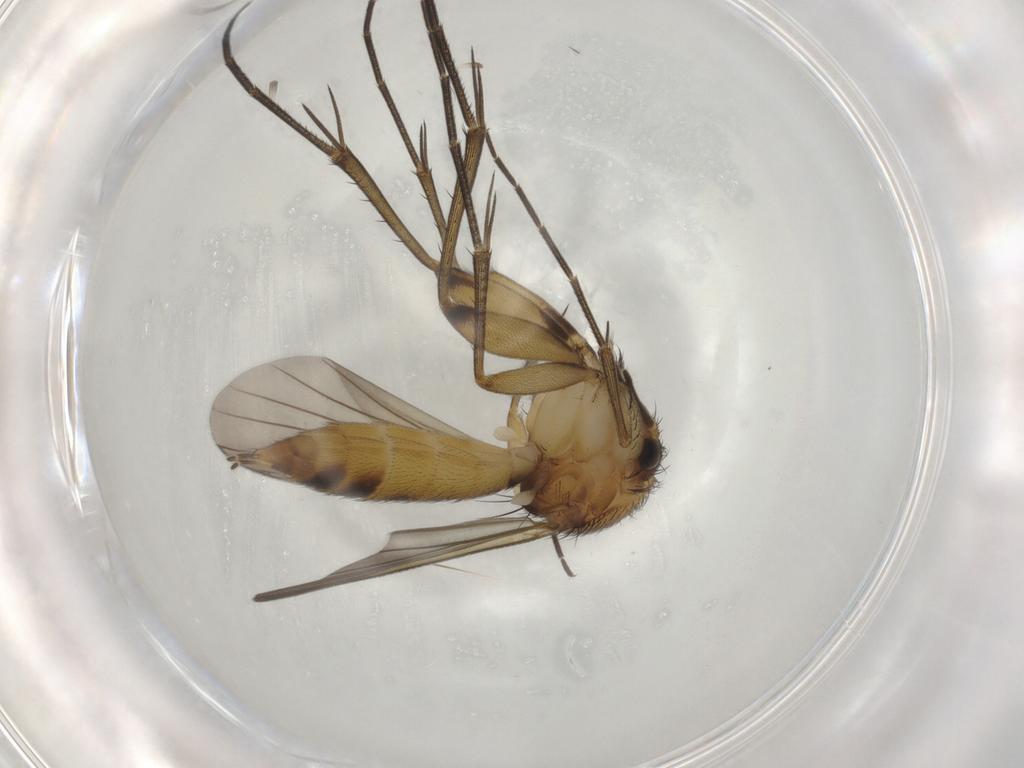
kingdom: Animalia
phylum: Arthropoda
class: Insecta
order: Diptera
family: Mycetophilidae
